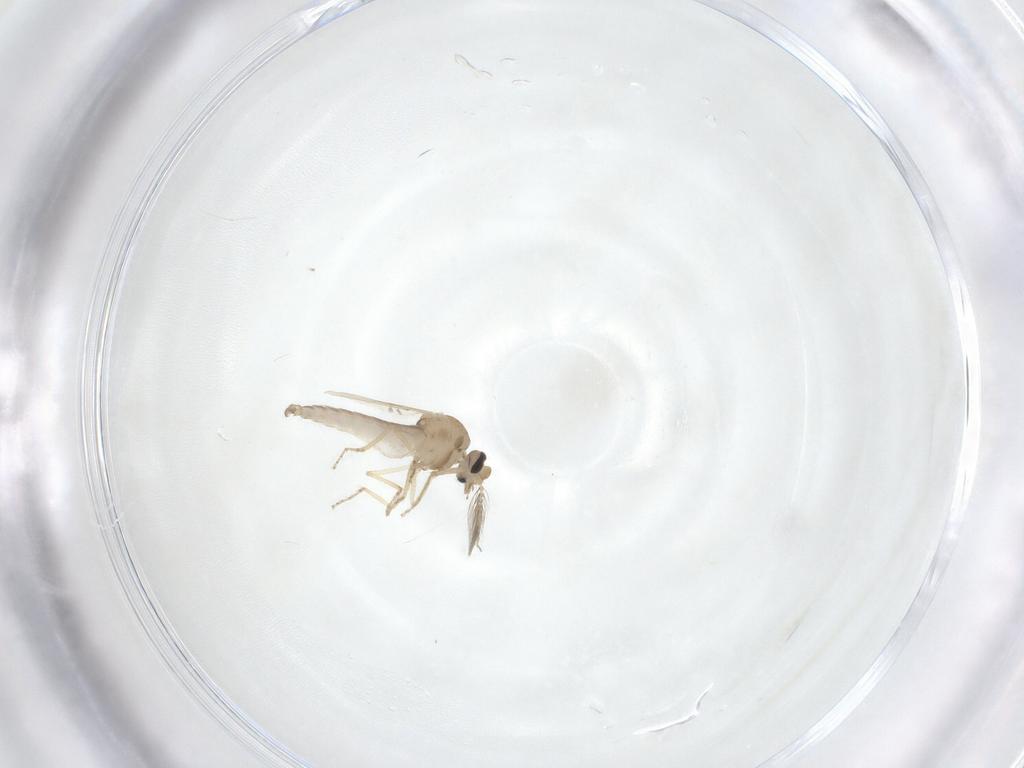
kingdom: Animalia
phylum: Arthropoda
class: Insecta
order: Diptera
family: Ceratopogonidae
